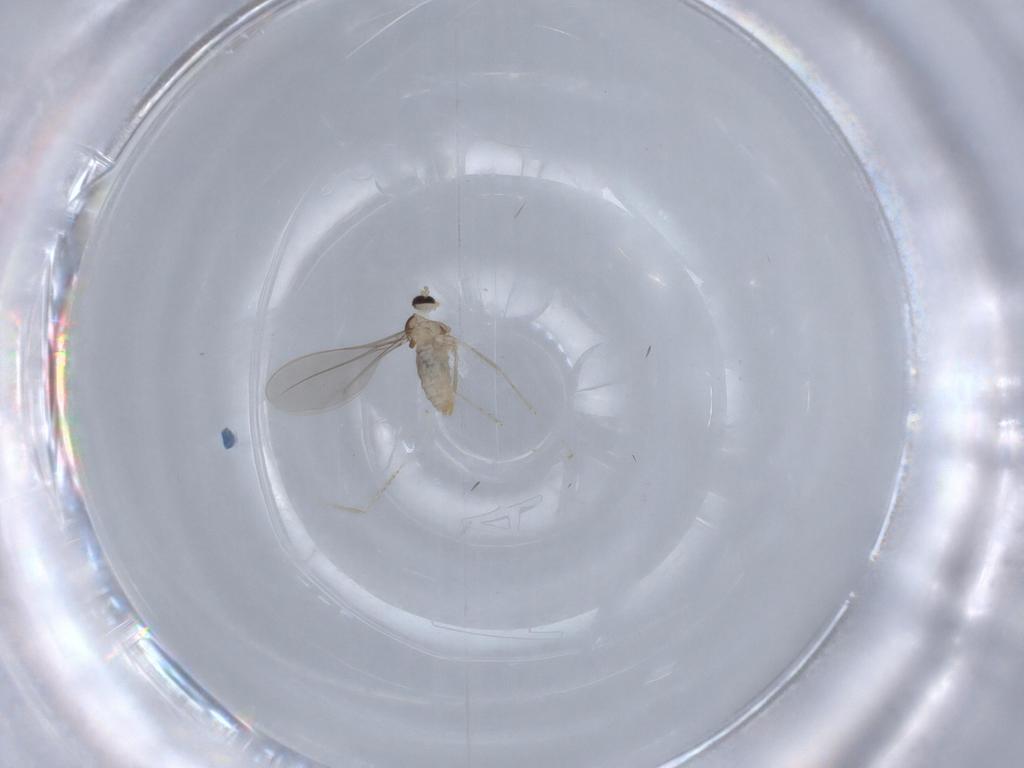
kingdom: Animalia
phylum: Arthropoda
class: Insecta
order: Diptera
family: Cecidomyiidae
